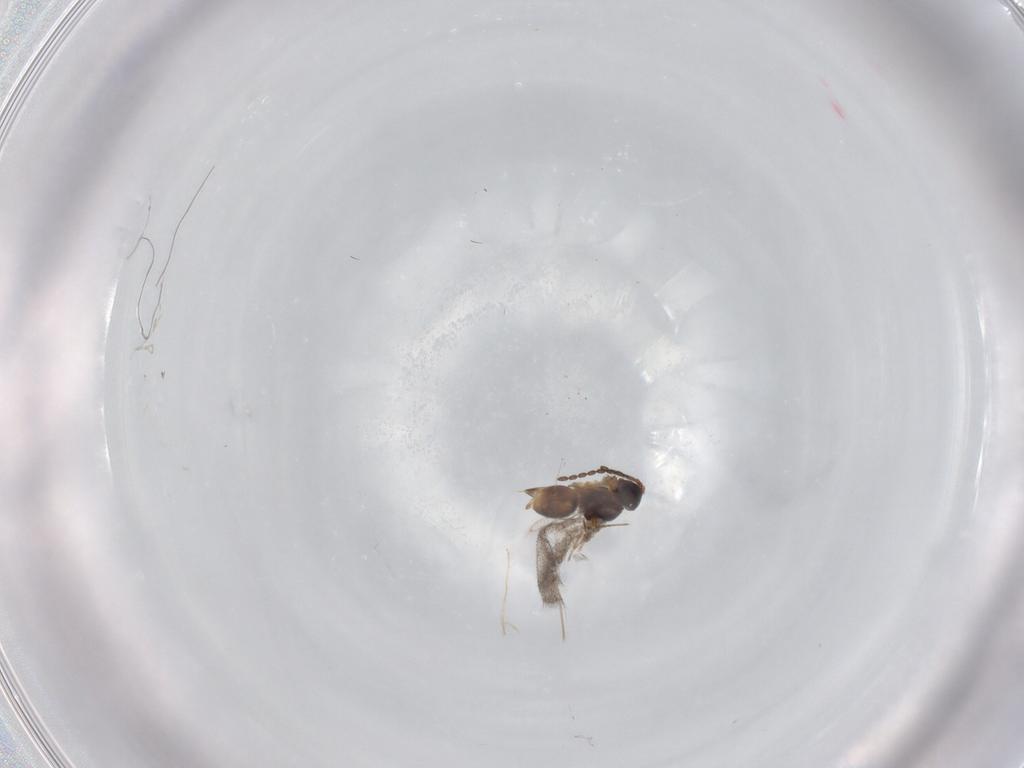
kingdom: Animalia
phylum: Arthropoda
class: Insecta
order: Hymenoptera
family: Figitidae
